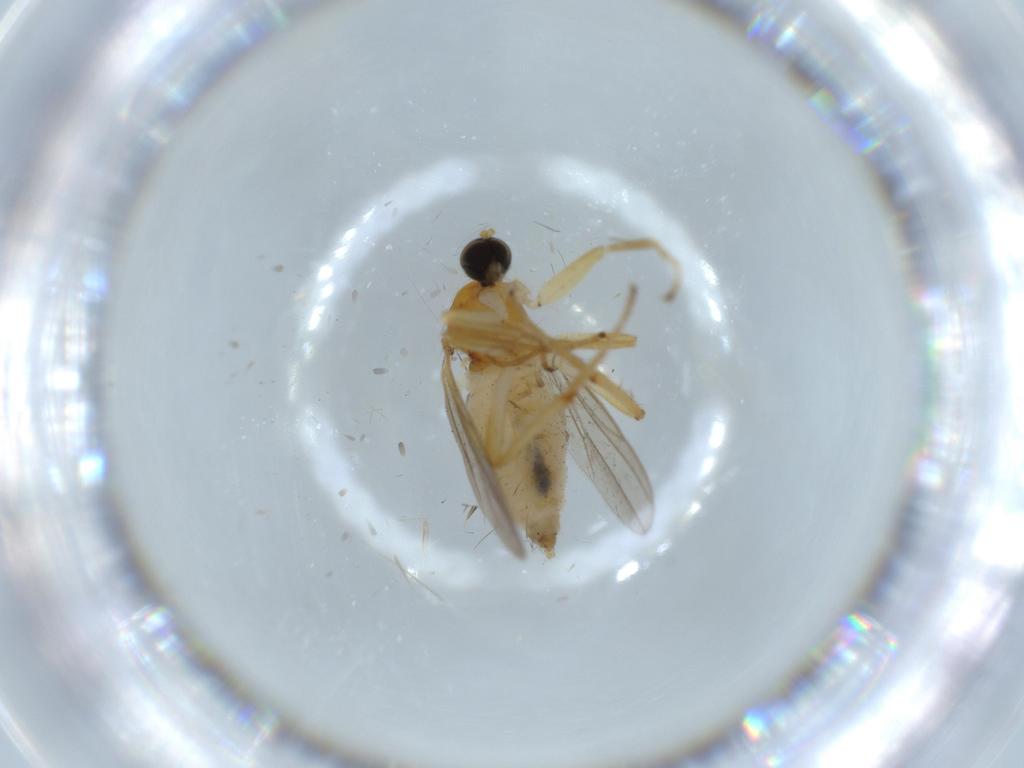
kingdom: Animalia
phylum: Arthropoda
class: Insecta
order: Diptera
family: Hybotidae
